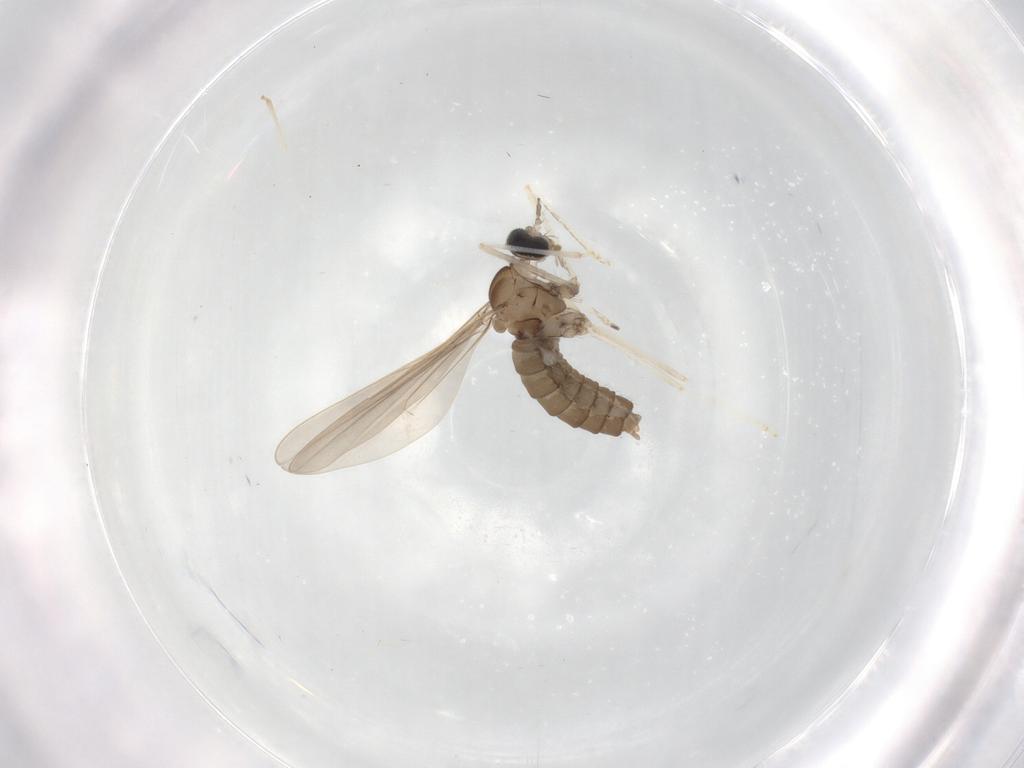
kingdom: Animalia
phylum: Arthropoda
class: Insecta
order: Diptera
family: Cecidomyiidae
